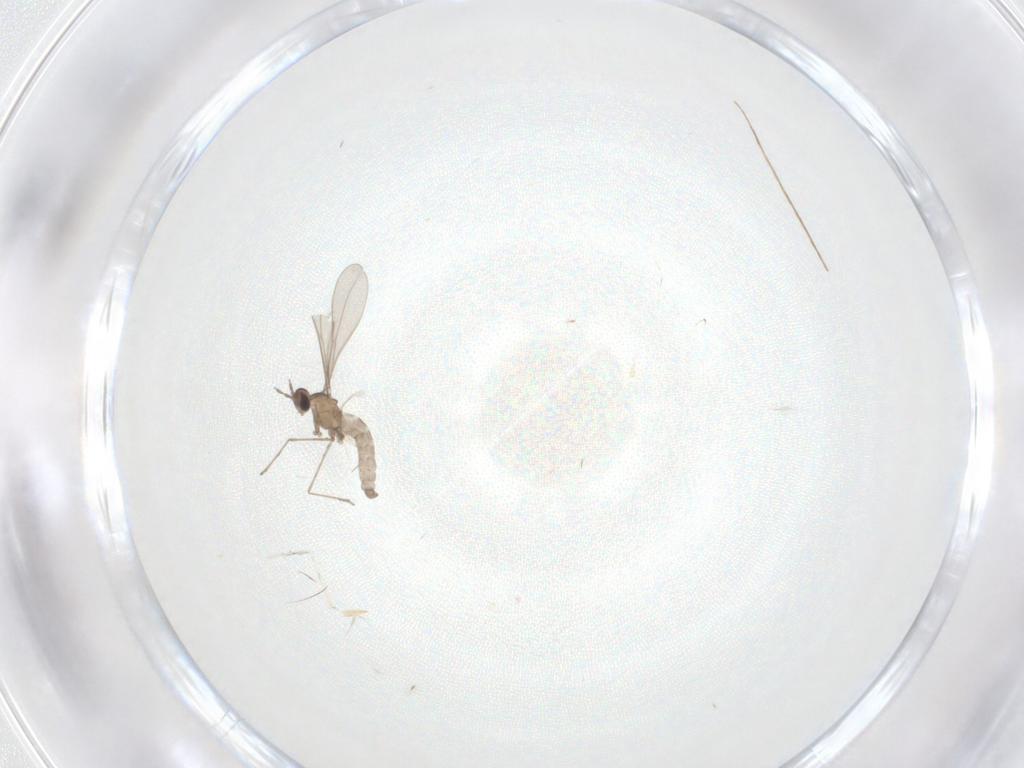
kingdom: Animalia
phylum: Arthropoda
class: Insecta
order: Diptera
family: Cecidomyiidae
